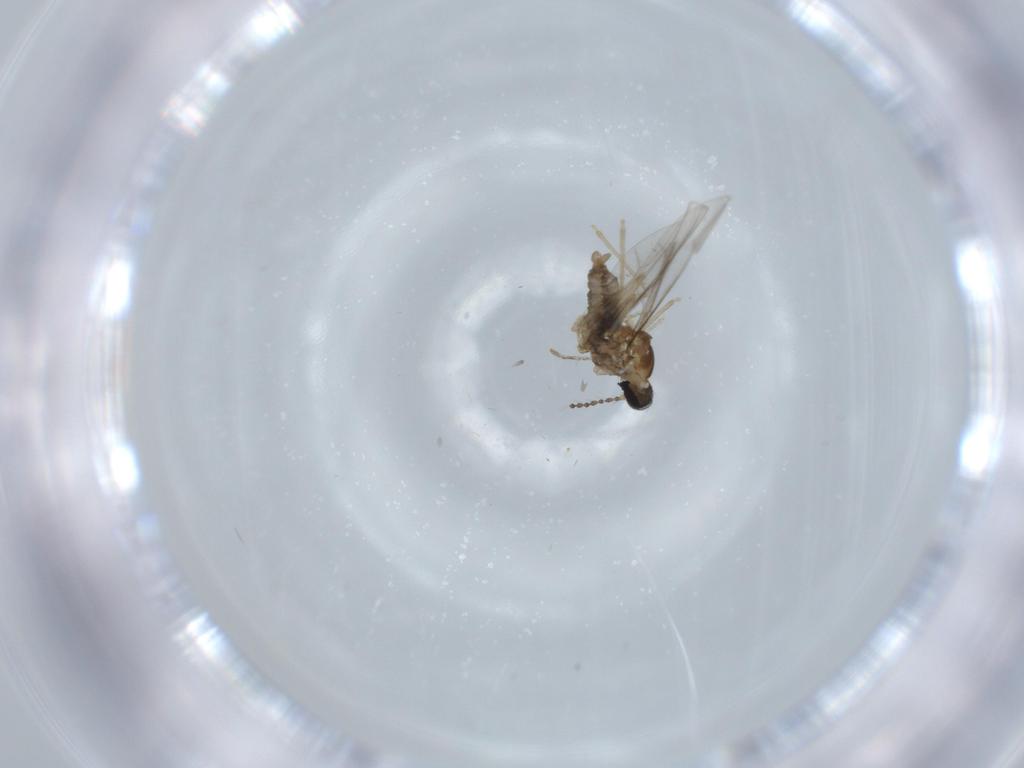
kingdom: Animalia
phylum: Arthropoda
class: Insecta
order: Diptera
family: Cecidomyiidae
